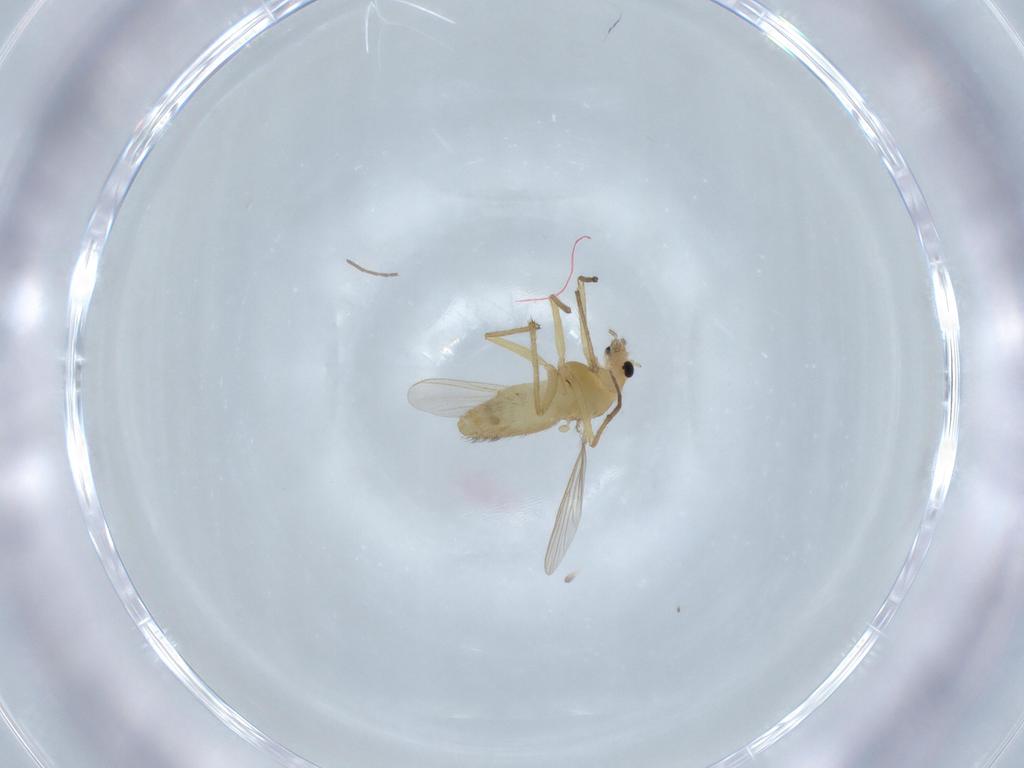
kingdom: Animalia
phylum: Arthropoda
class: Insecta
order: Diptera
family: Chironomidae
